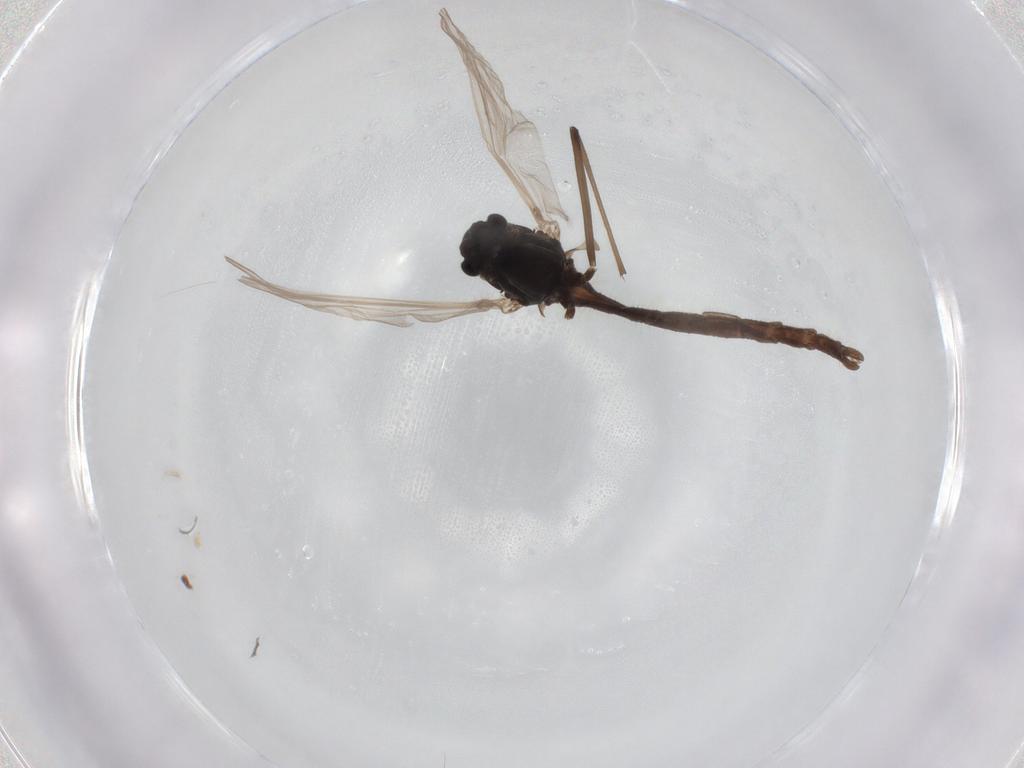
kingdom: Animalia
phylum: Arthropoda
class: Insecta
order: Diptera
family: Chironomidae
